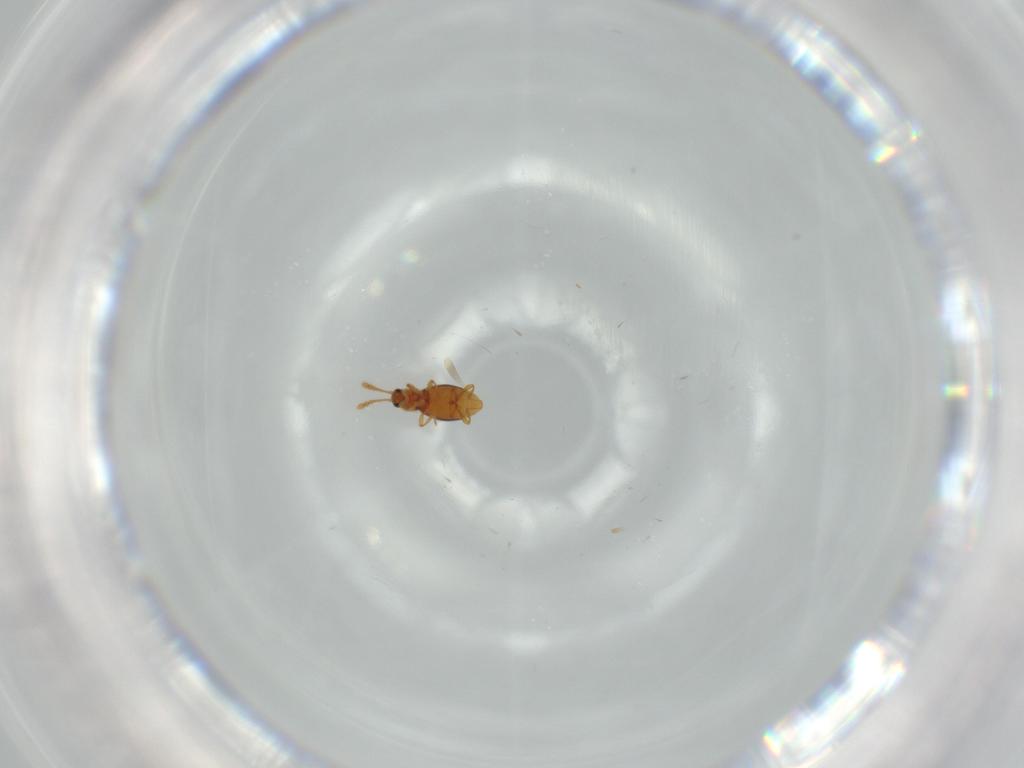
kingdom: Animalia
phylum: Arthropoda
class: Insecta
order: Coleoptera
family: Staphylinidae
